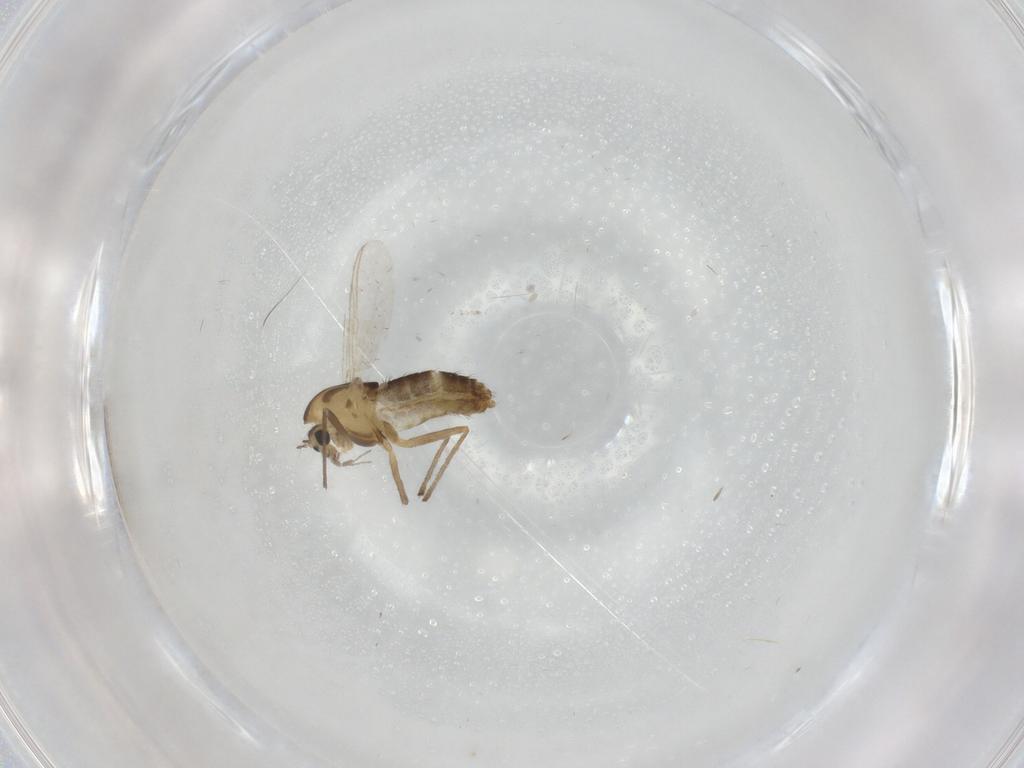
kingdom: Animalia
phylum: Arthropoda
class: Insecta
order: Diptera
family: Chironomidae
